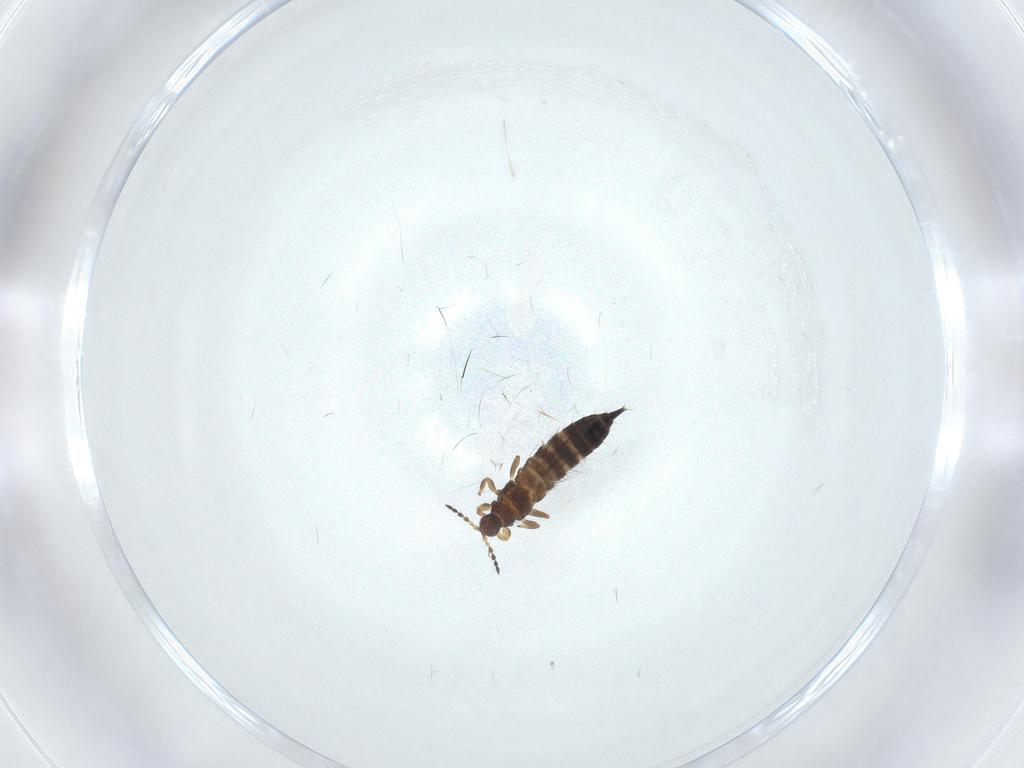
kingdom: Animalia
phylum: Arthropoda
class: Insecta
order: Thysanoptera
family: Phlaeothripidae
